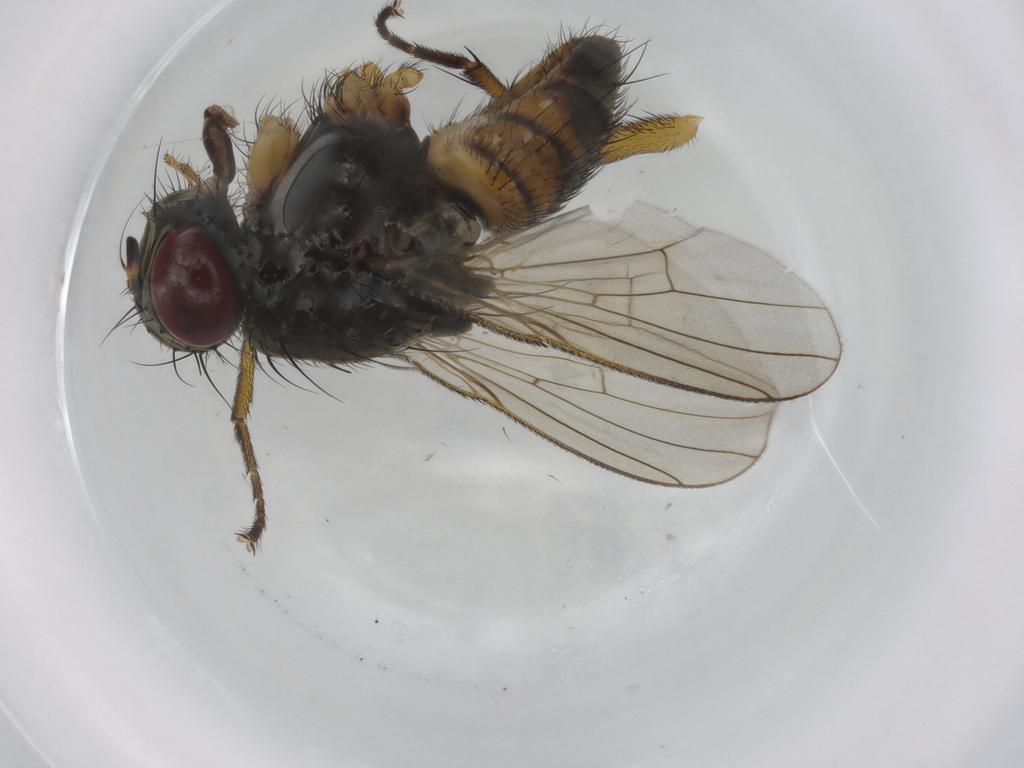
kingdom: Animalia
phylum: Arthropoda
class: Insecta
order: Diptera
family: Muscidae
